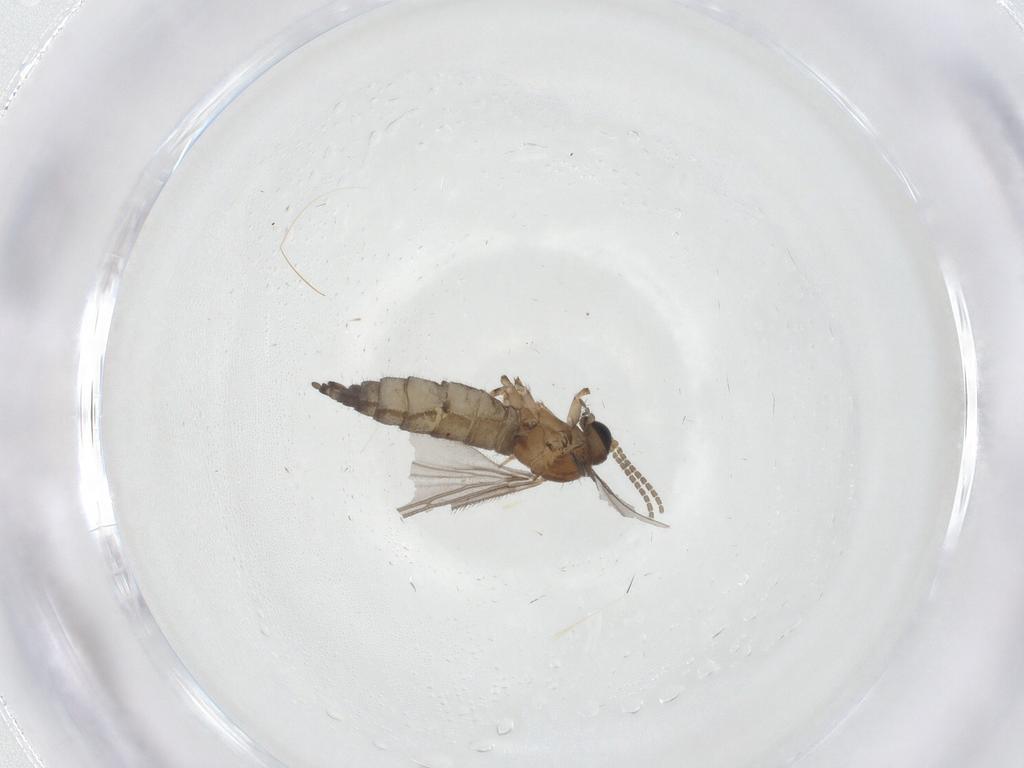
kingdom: Animalia
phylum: Arthropoda
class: Insecta
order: Diptera
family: Sciaridae
